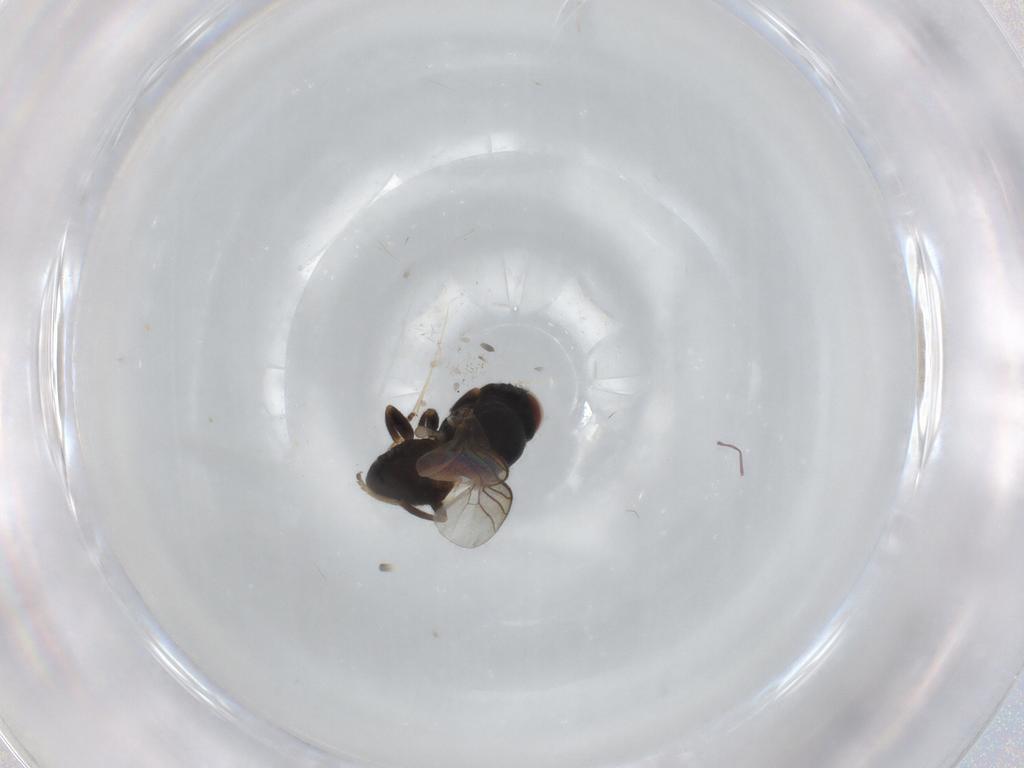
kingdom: Animalia
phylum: Arthropoda
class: Insecta
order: Diptera
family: Chloropidae
